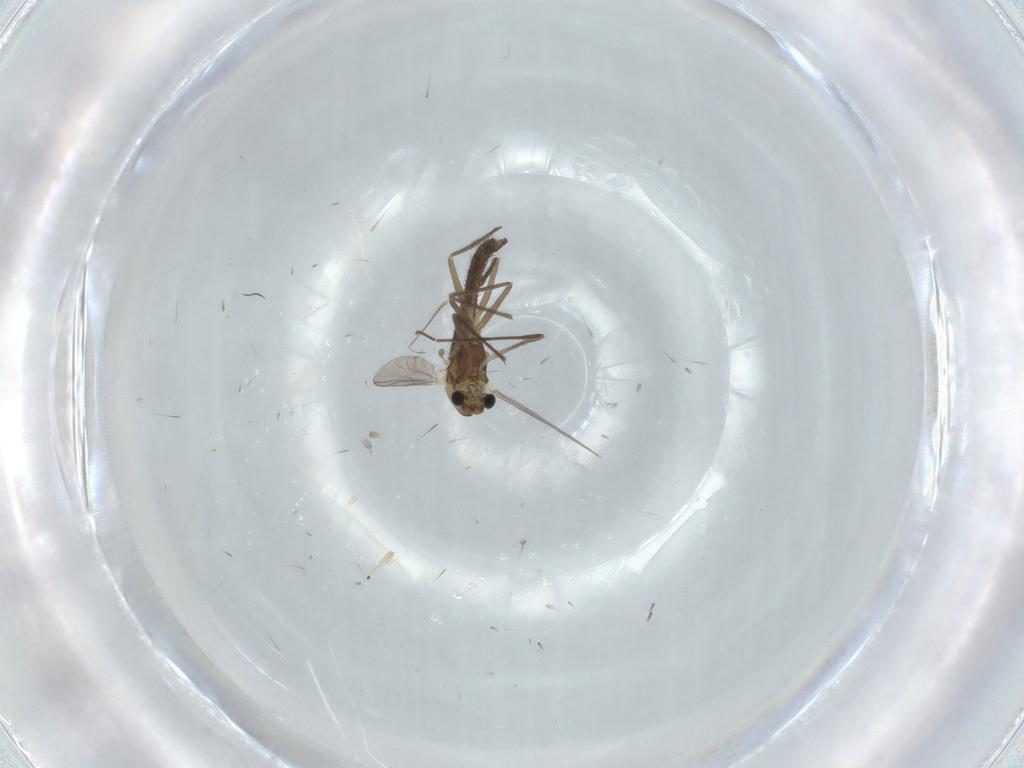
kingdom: Animalia
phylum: Arthropoda
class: Insecta
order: Diptera
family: Chironomidae
